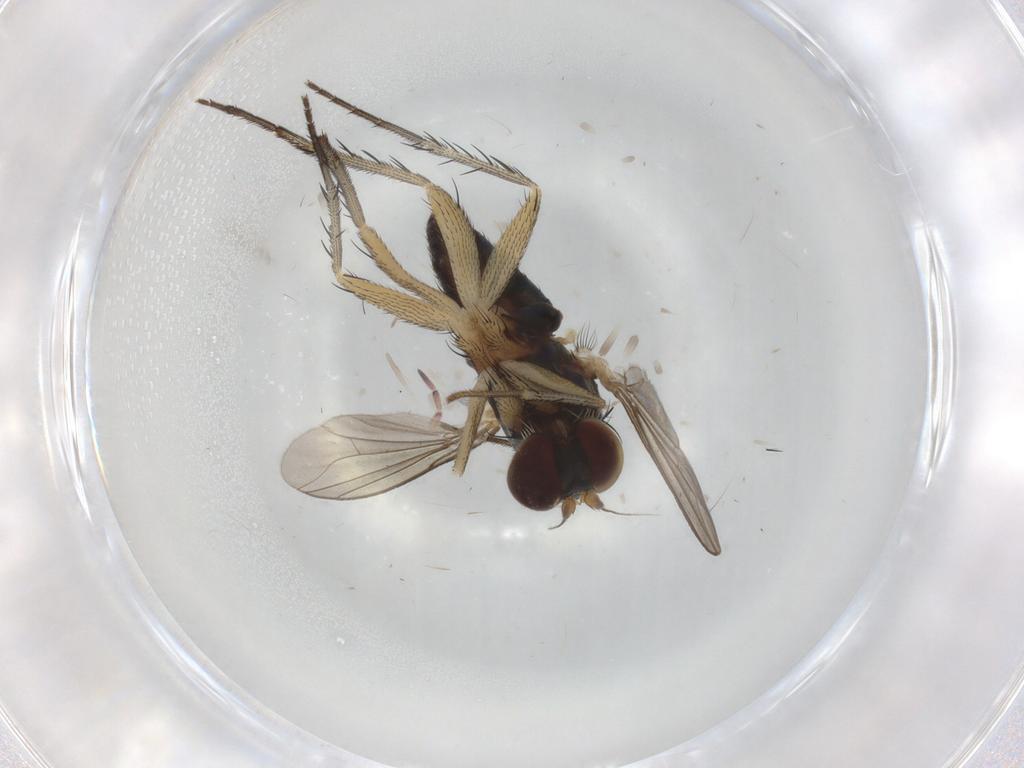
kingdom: Animalia
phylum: Arthropoda
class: Insecta
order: Diptera
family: Dolichopodidae
